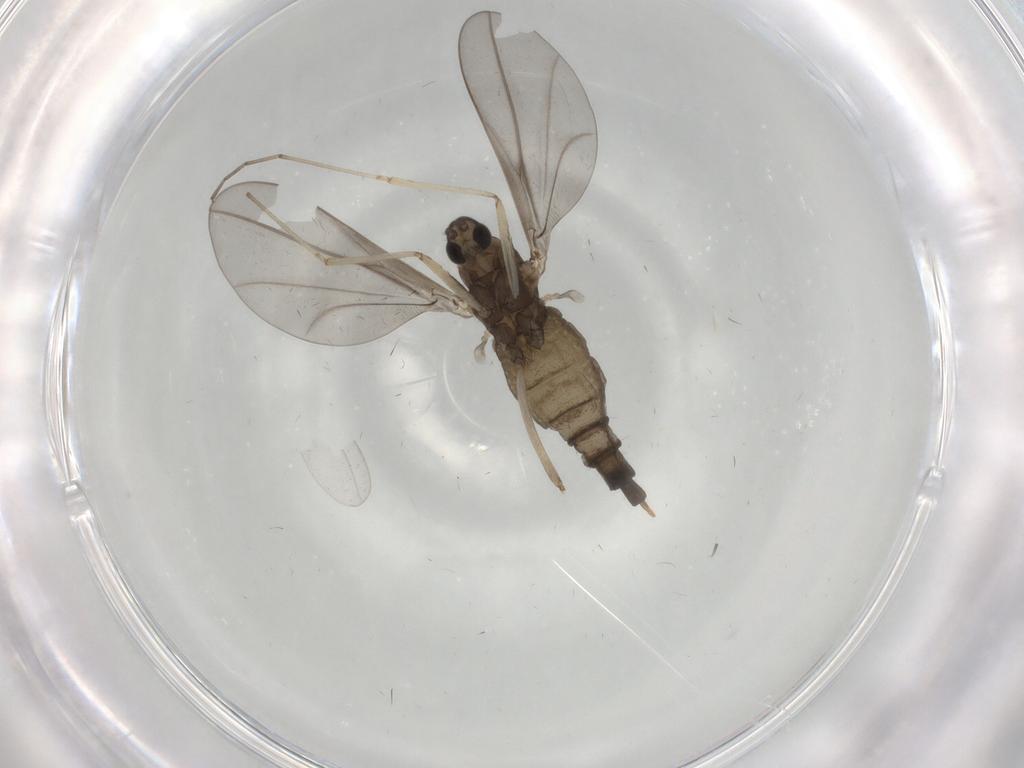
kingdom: Animalia
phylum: Arthropoda
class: Insecta
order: Diptera
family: Cecidomyiidae
